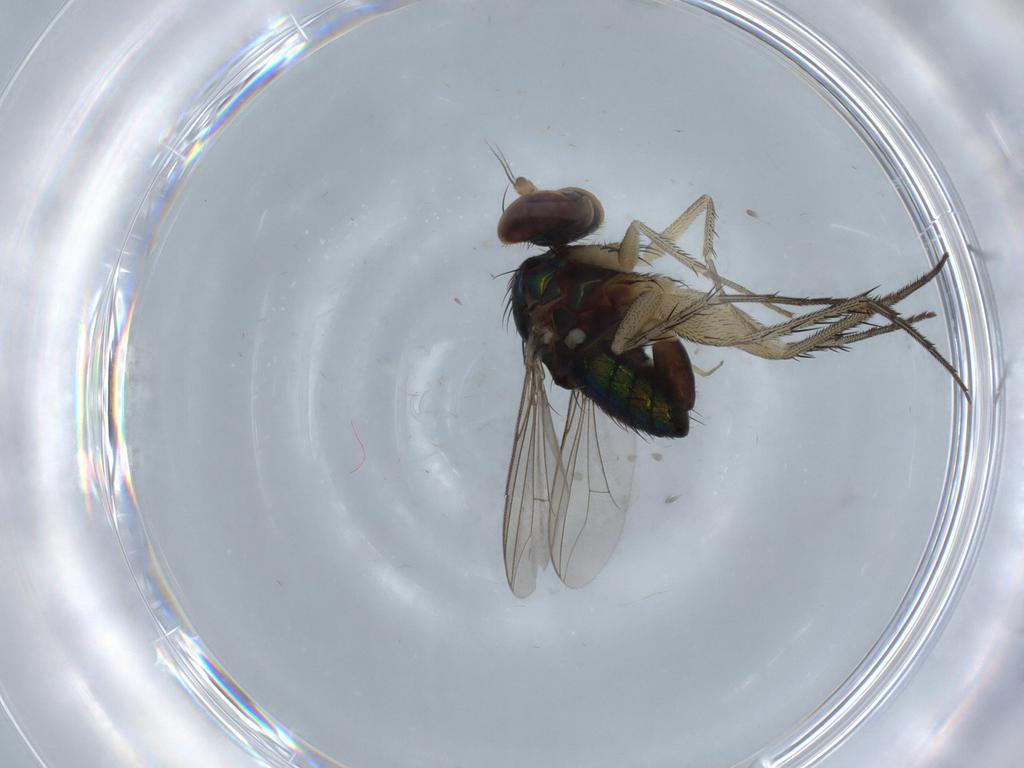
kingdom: Animalia
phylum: Arthropoda
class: Insecta
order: Diptera
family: Dolichopodidae
